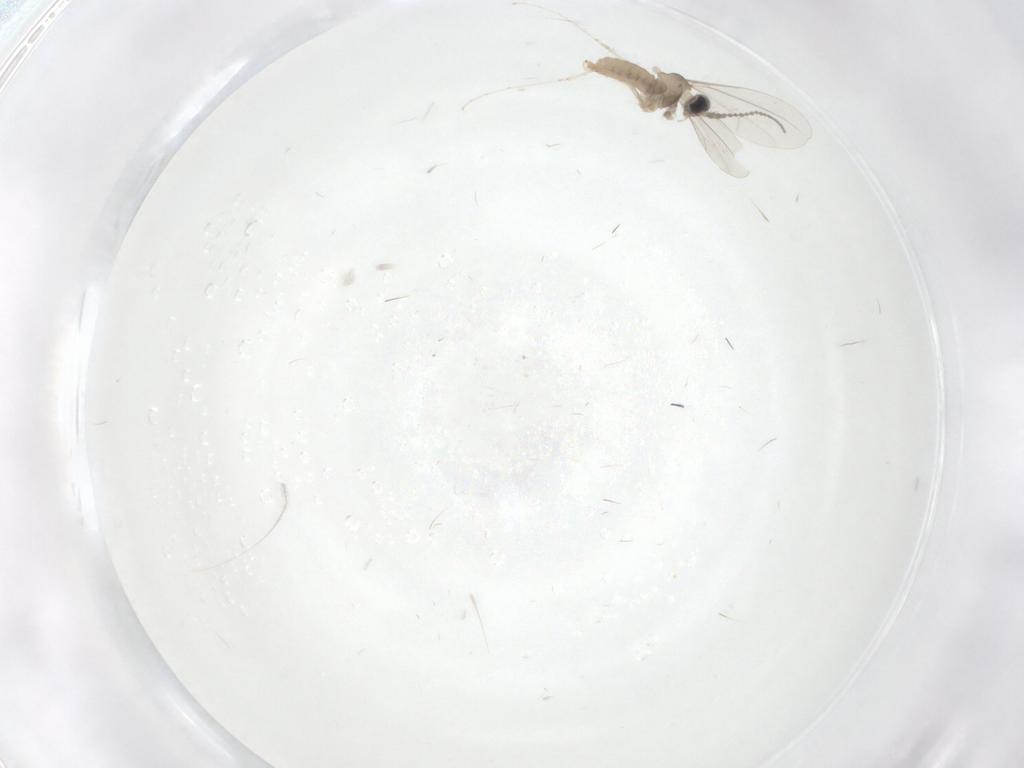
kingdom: Animalia
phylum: Arthropoda
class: Insecta
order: Diptera
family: Cecidomyiidae
